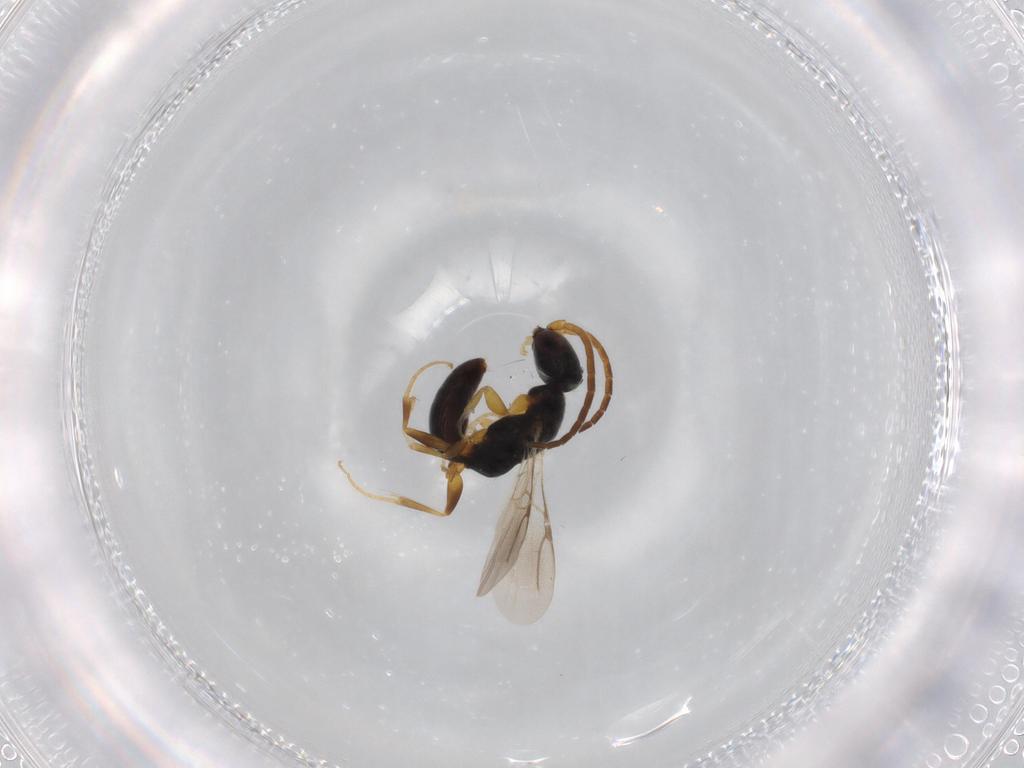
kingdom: Animalia
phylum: Arthropoda
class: Insecta
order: Hymenoptera
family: Bethylidae
